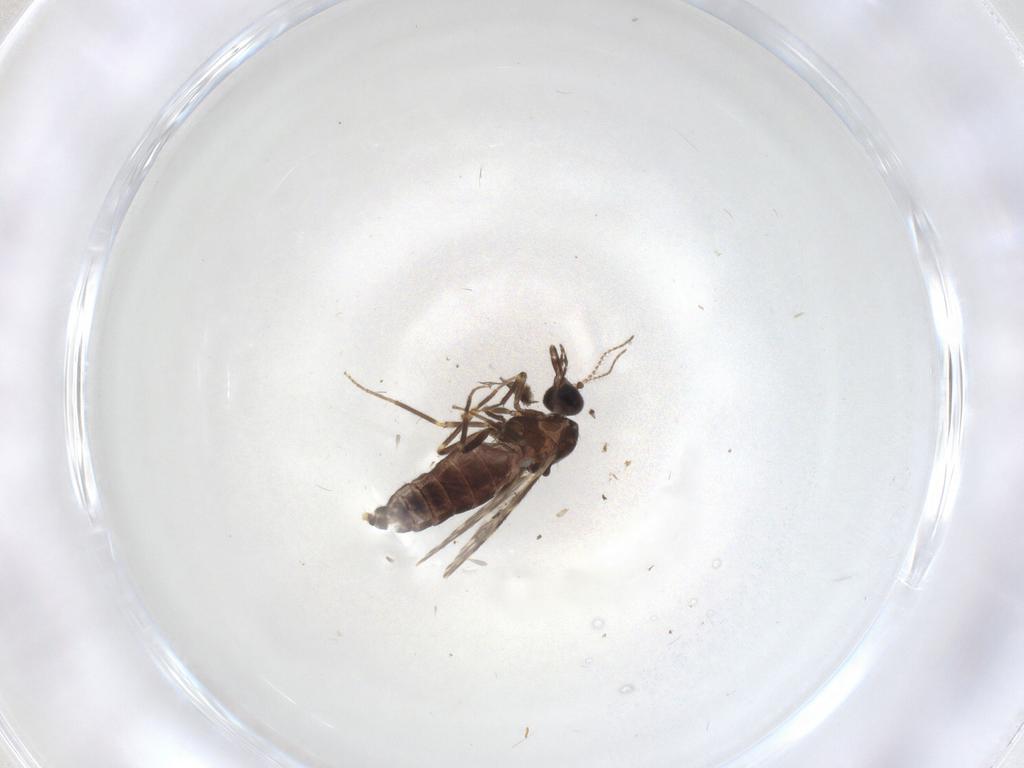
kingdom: Animalia
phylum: Arthropoda
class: Insecta
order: Diptera
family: Ceratopogonidae
